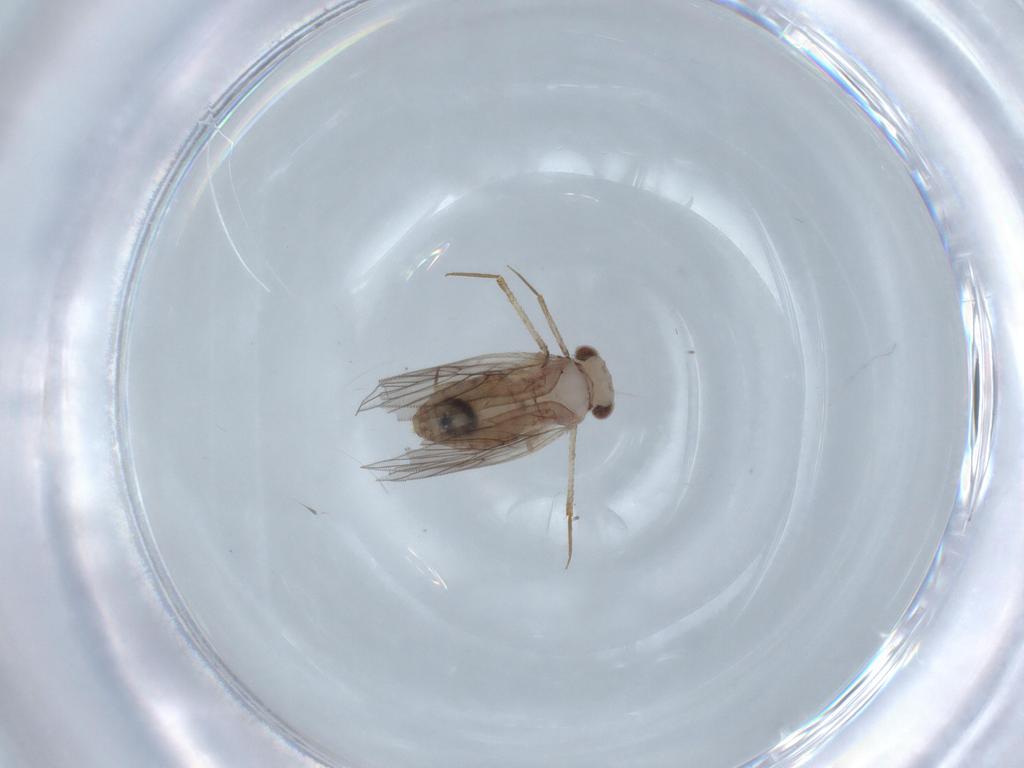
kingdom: Animalia
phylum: Arthropoda
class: Insecta
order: Psocodea
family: Lepidopsocidae
